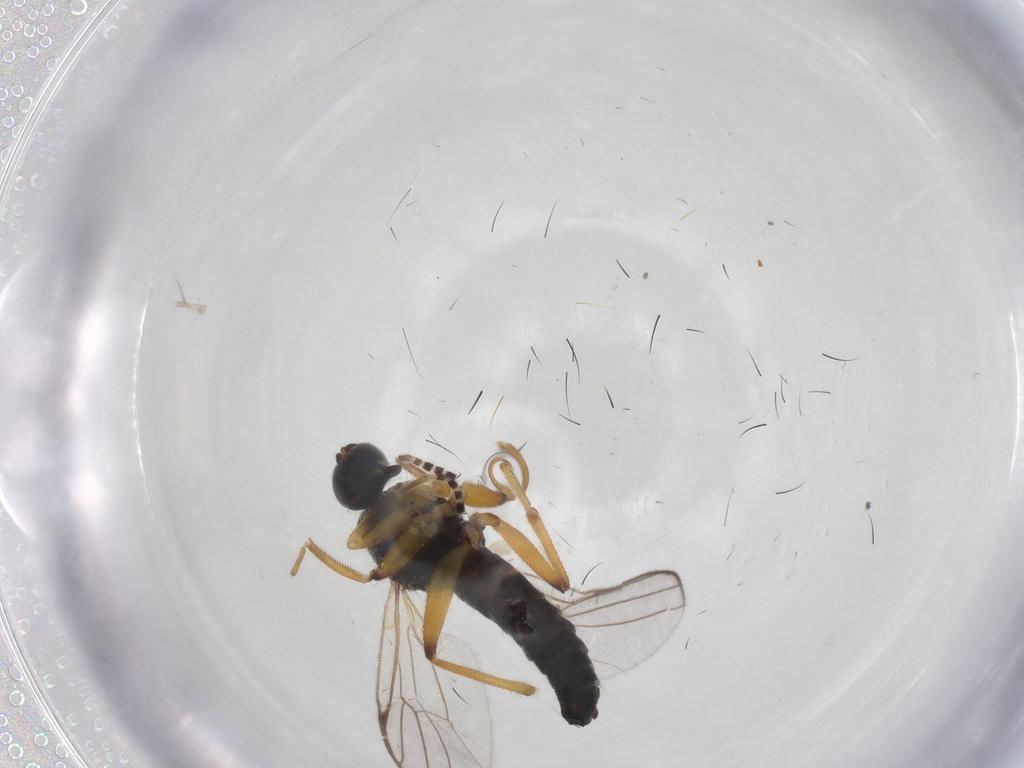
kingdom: Animalia
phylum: Arthropoda
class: Insecta
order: Diptera
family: Hybotidae
